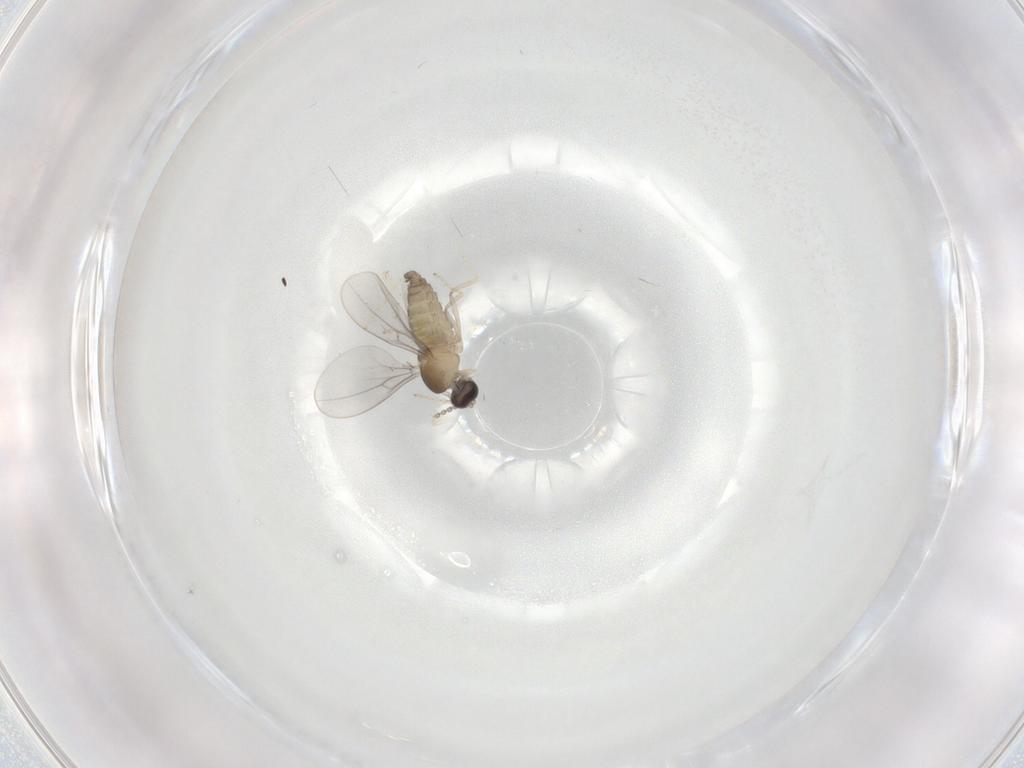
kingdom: Animalia
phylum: Arthropoda
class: Insecta
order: Diptera
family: Cecidomyiidae
